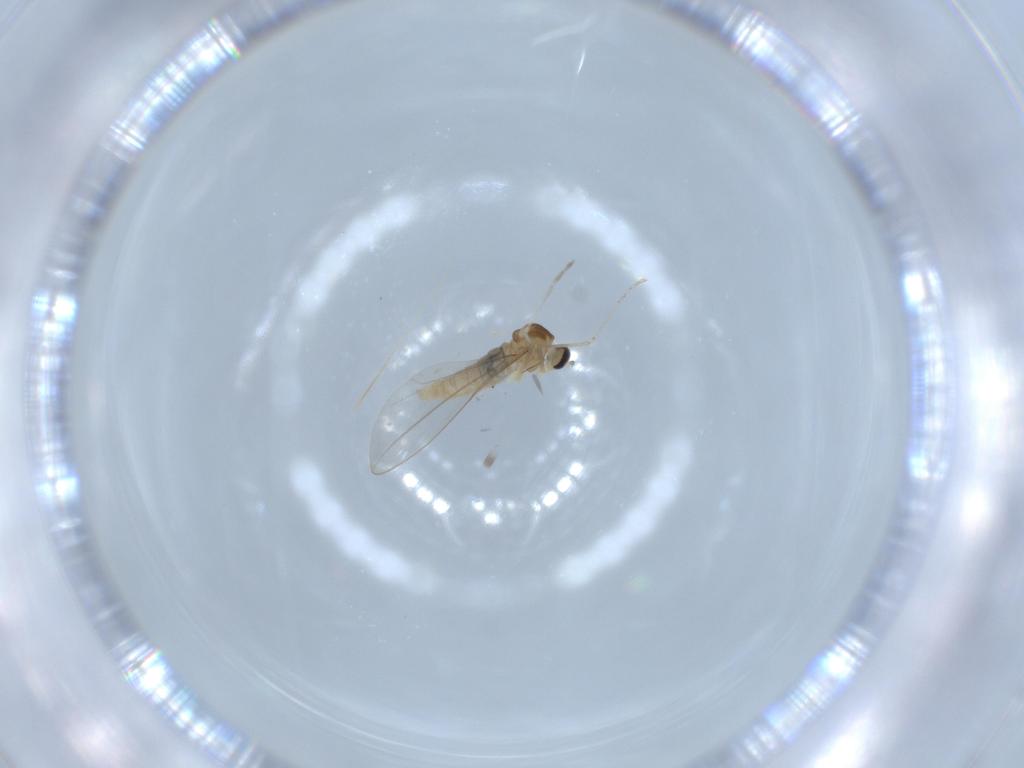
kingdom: Animalia
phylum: Arthropoda
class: Insecta
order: Diptera
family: Cecidomyiidae
